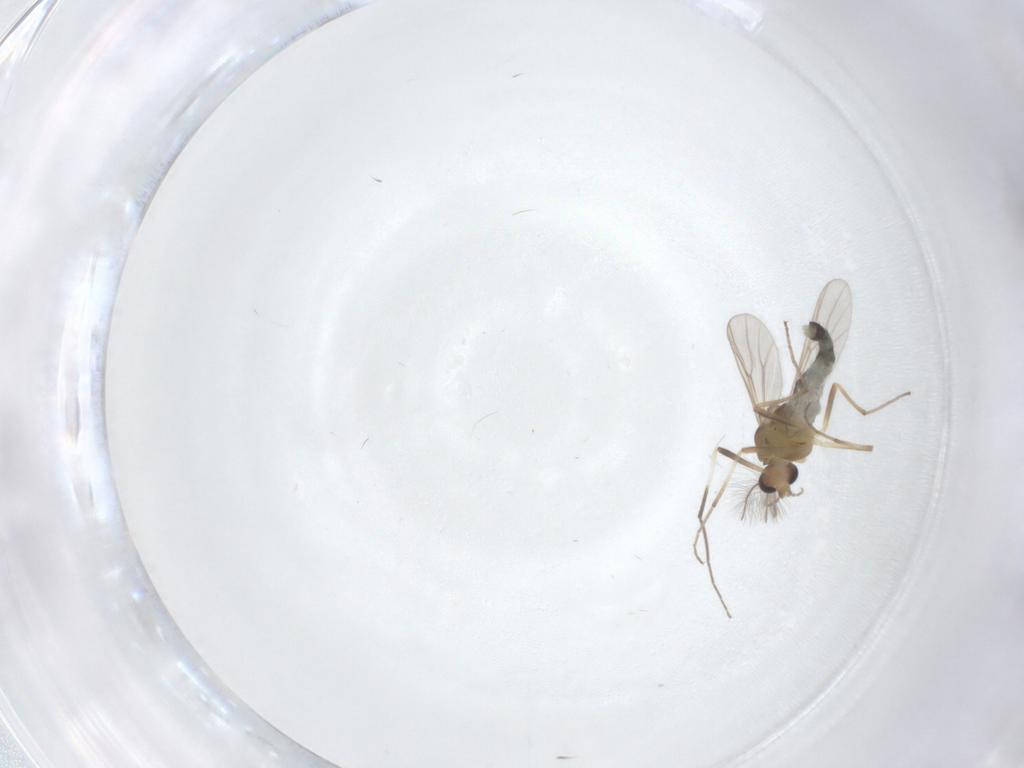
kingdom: Animalia
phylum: Arthropoda
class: Insecta
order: Diptera
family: Chironomidae
